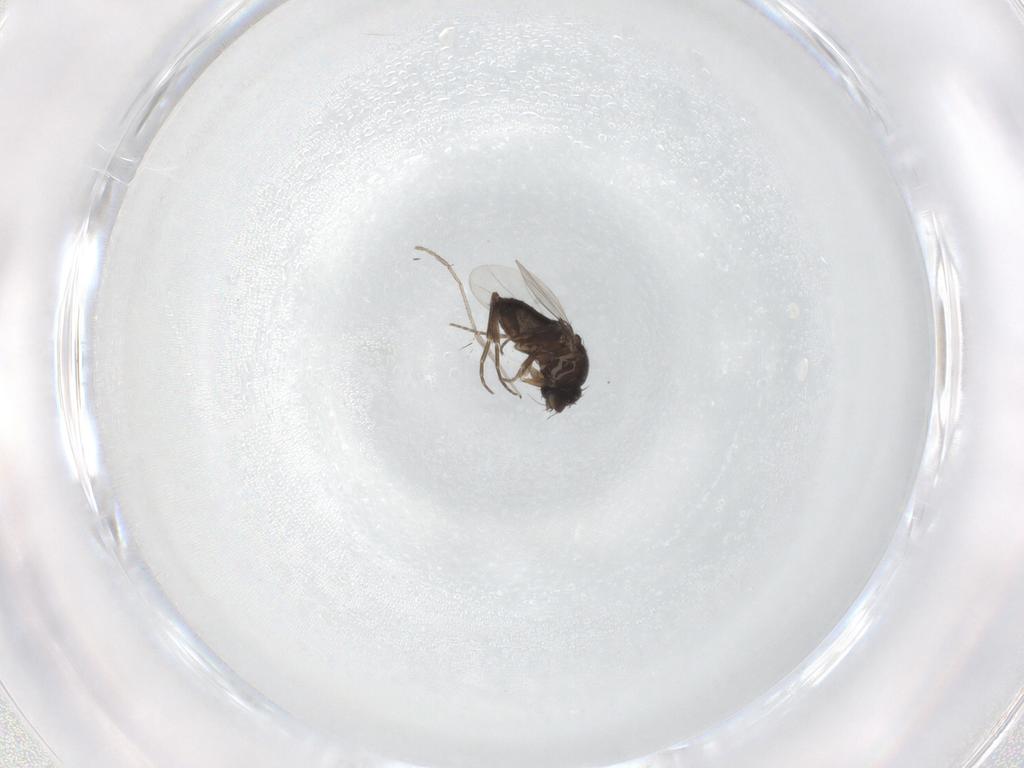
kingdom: Animalia
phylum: Arthropoda
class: Insecta
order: Diptera
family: Phoridae
